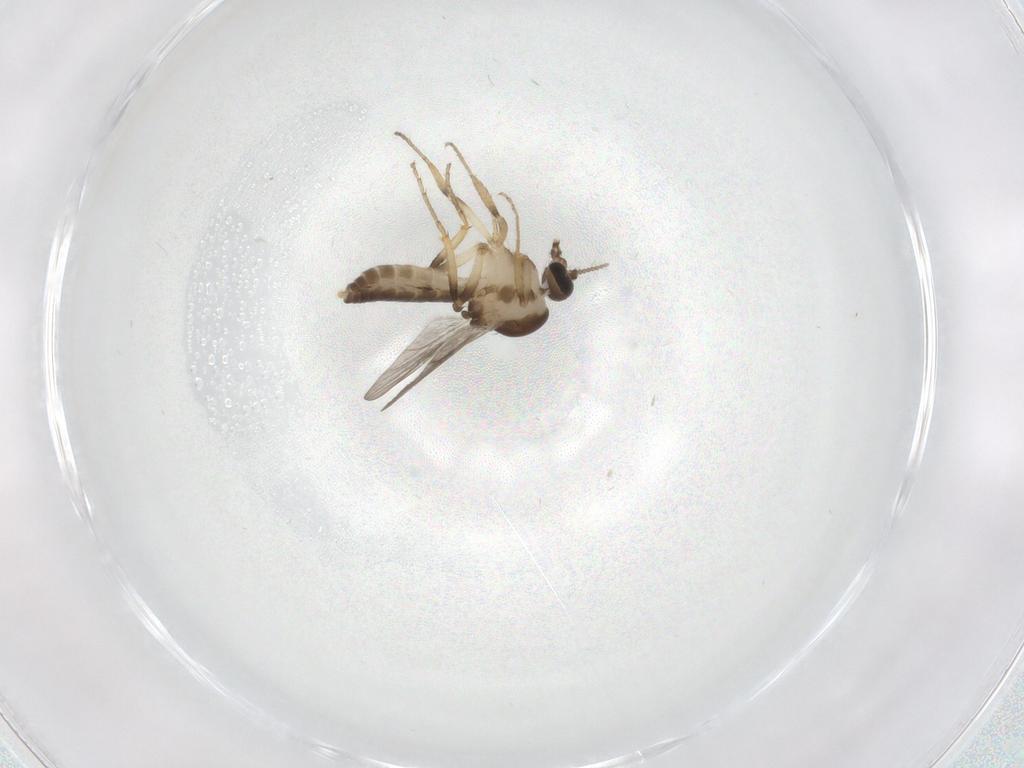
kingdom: Animalia
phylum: Arthropoda
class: Insecta
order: Diptera
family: Ceratopogonidae
